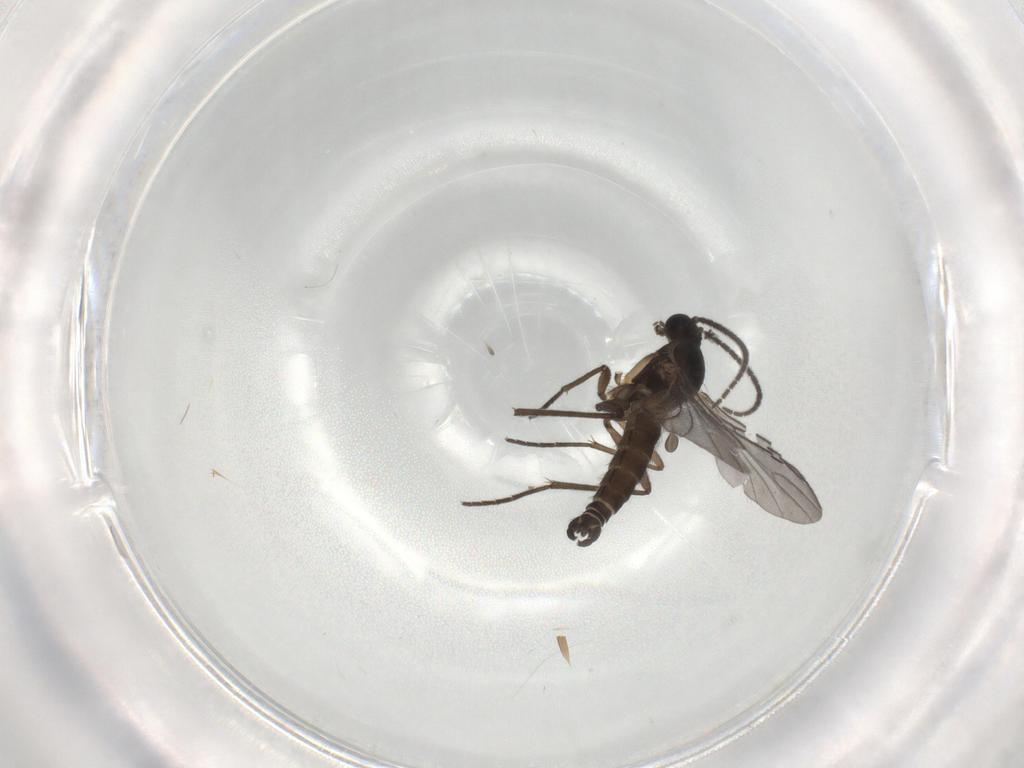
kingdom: Animalia
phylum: Arthropoda
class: Insecta
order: Diptera
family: Sciaridae
